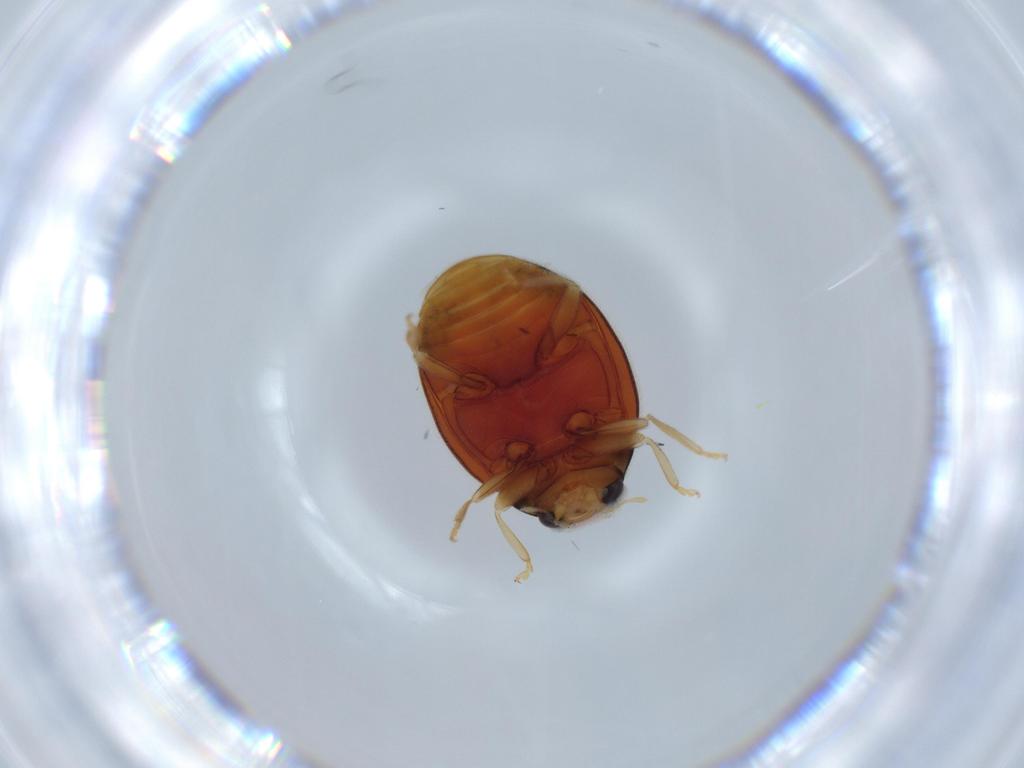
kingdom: Animalia
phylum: Arthropoda
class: Insecta
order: Coleoptera
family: Coccinellidae
